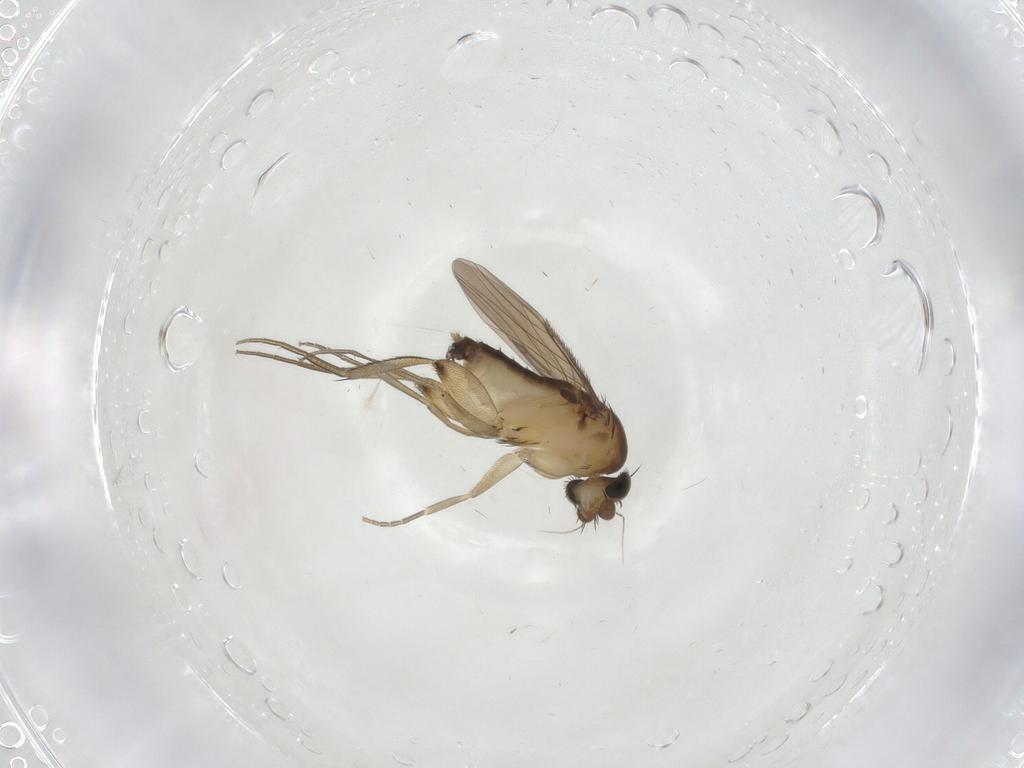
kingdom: Animalia
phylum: Arthropoda
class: Insecta
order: Diptera
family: Phoridae
